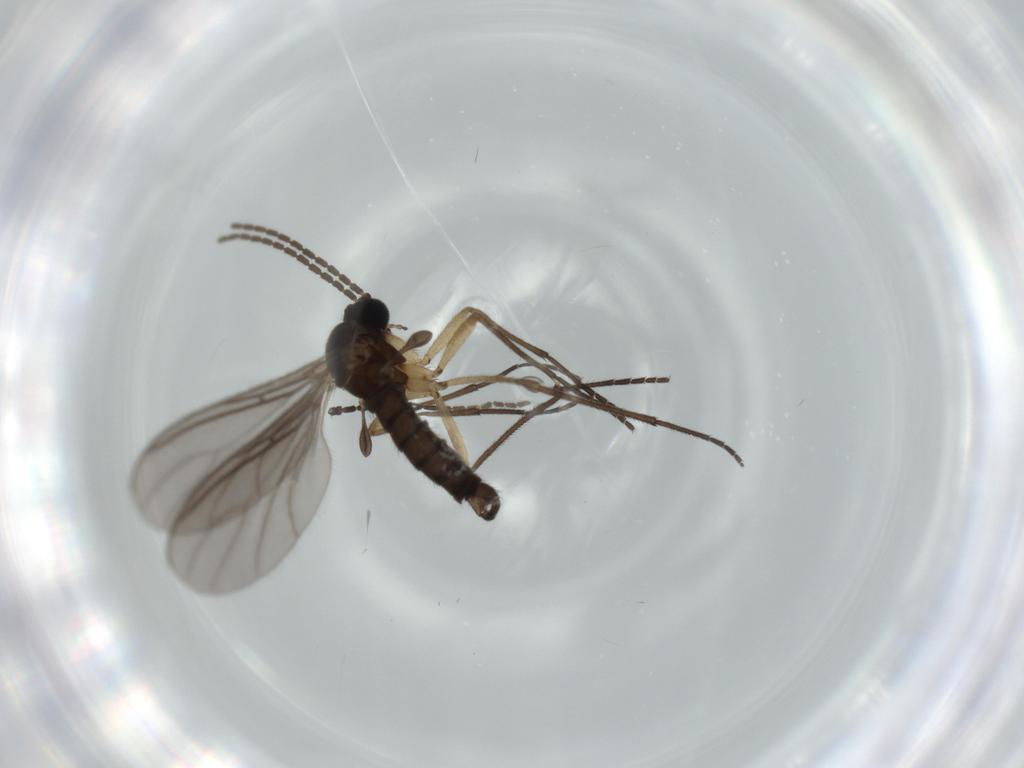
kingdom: Animalia
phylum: Arthropoda
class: Insecta
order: Diptera
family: Sciaridae
